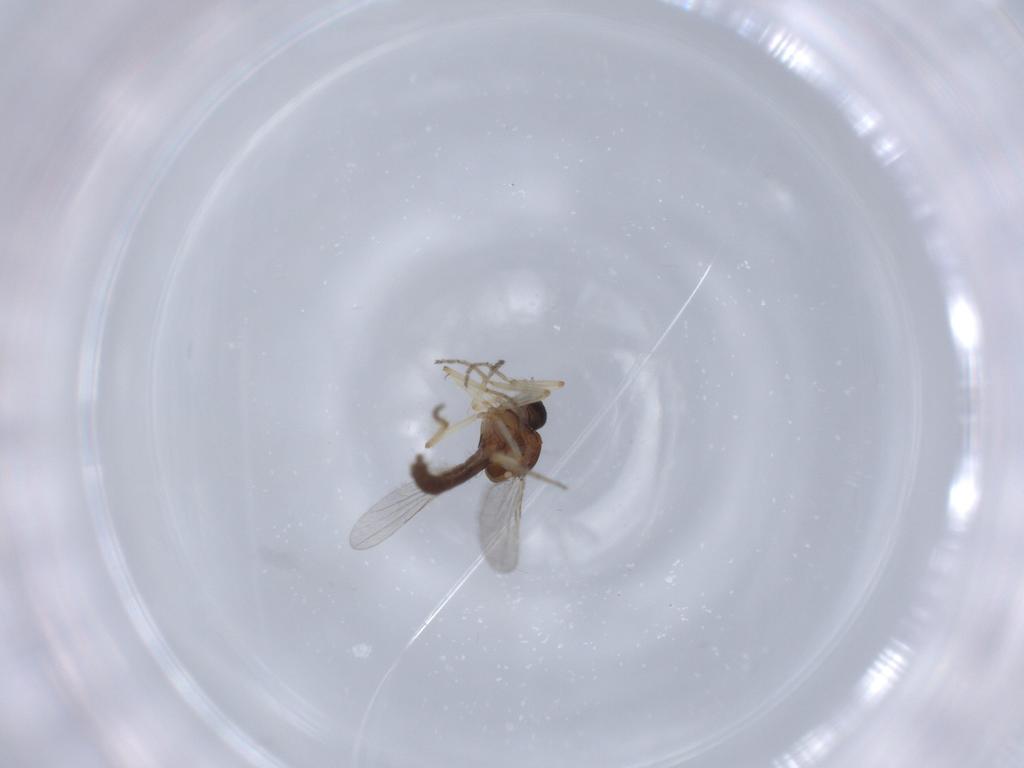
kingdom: Animalia
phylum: Arthropoda
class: Insecta
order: Diptera
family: Ceratopogonidae
